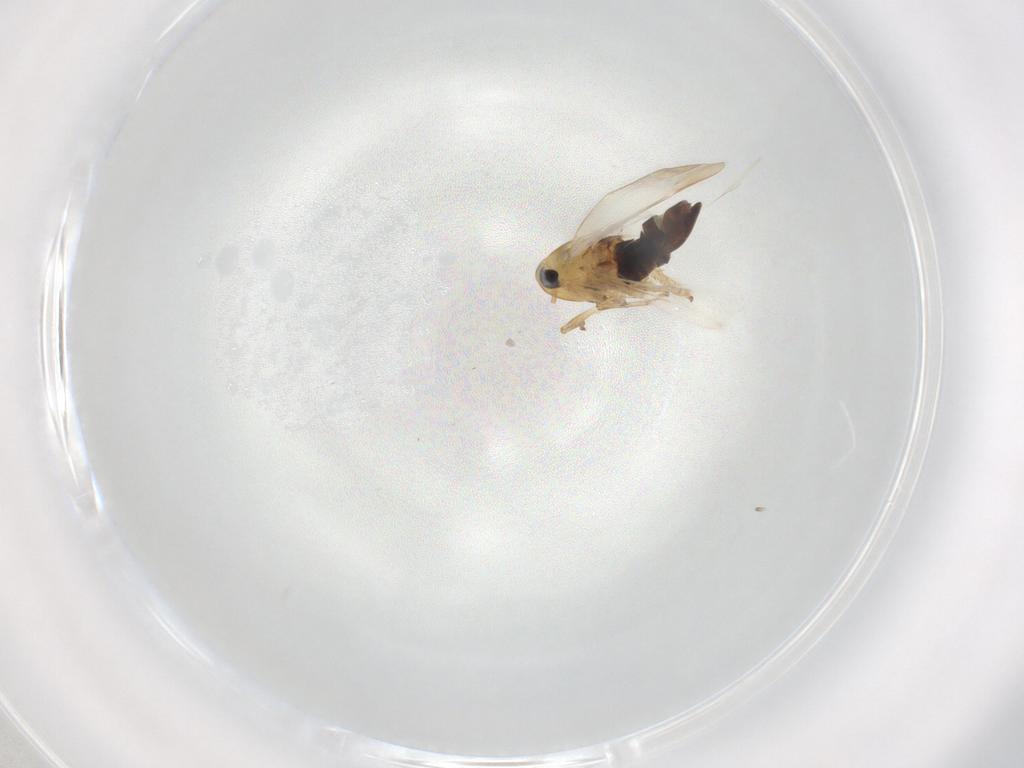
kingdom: Animalia
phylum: Arthropoda
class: Insecta
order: Hemiptera
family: Cicadellidae
